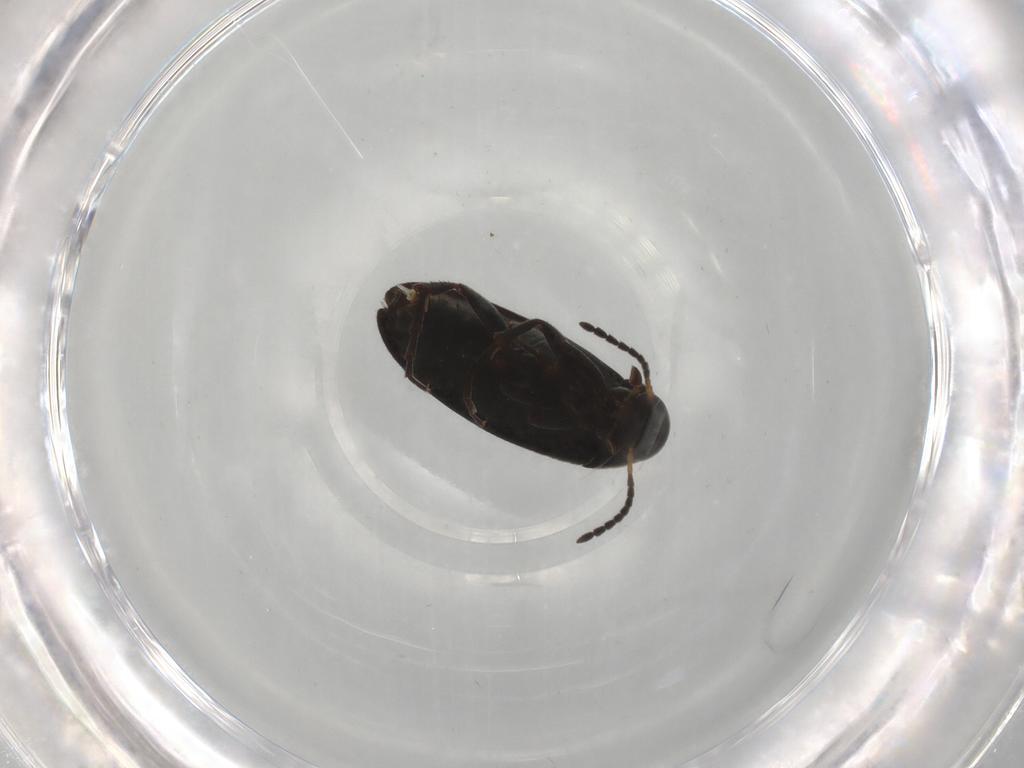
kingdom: Animalia
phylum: Arthropoda
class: Insecta
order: Coleoptera
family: Scraptiidae
